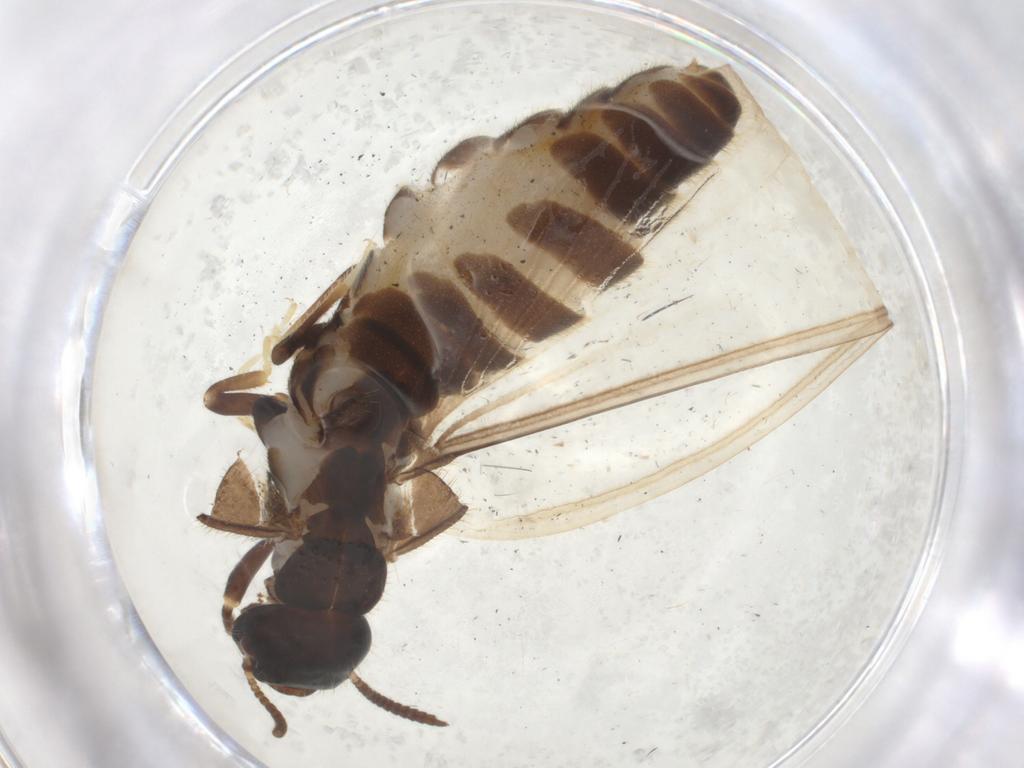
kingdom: Animalia
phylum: Arthropoda
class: Insecta
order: Blattodea
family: Rhinotermitidae
